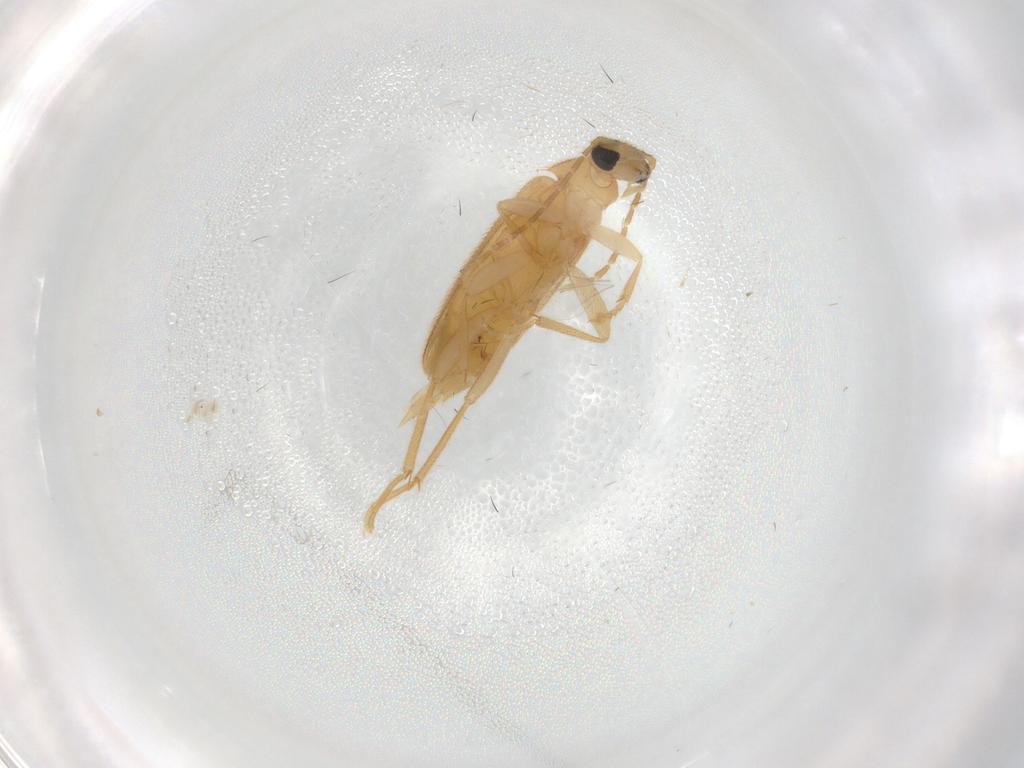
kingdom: Animalia
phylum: Arthropoda
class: Insecta
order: Coleoptera
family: Scraptiidae
